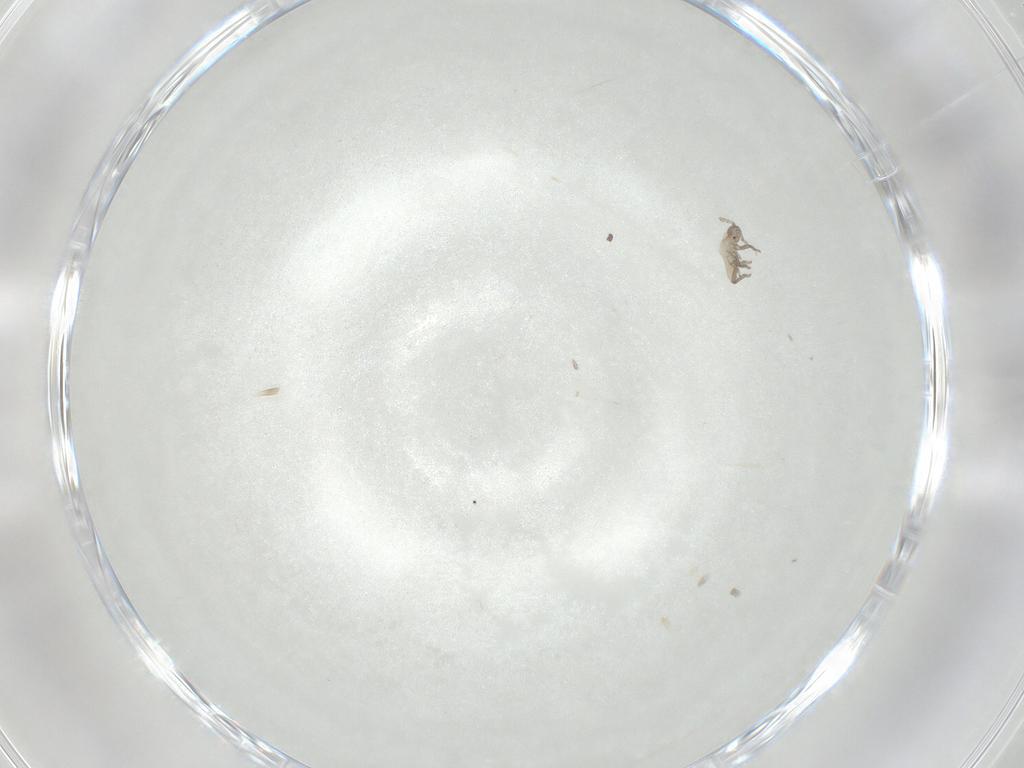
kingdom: Animalia
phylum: Arthropoda
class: Insecta
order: Hemiptera
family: Aphididae
